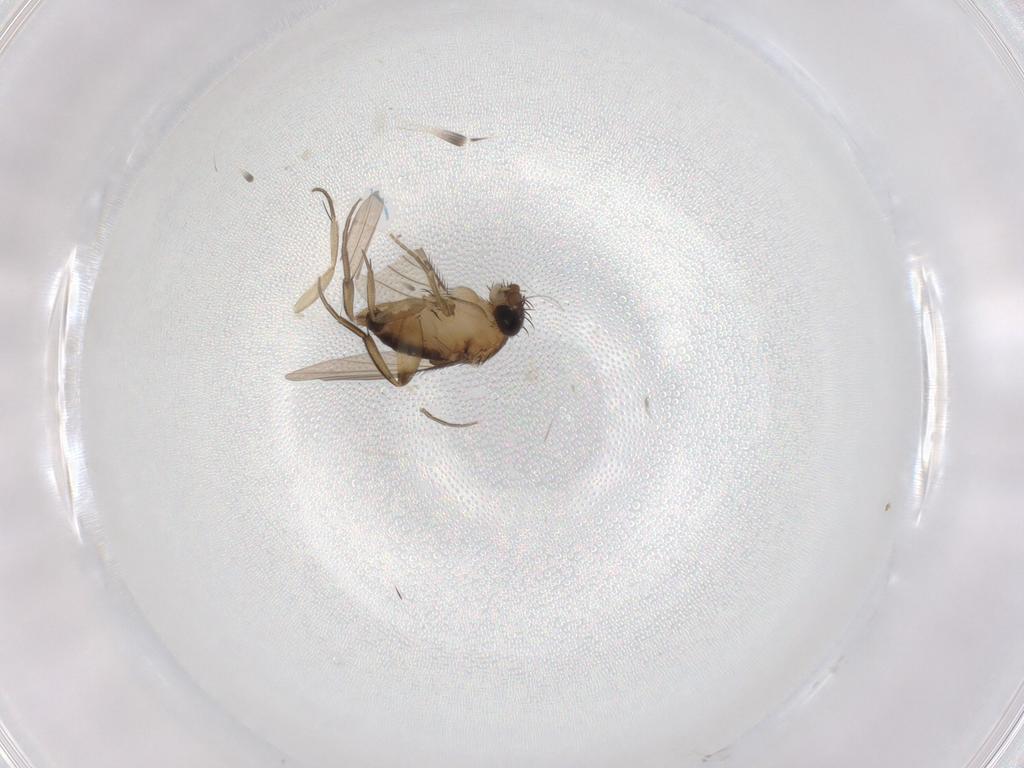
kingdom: Animalia
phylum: Arthropoda
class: Insecta
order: Diptera
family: Phoridae
